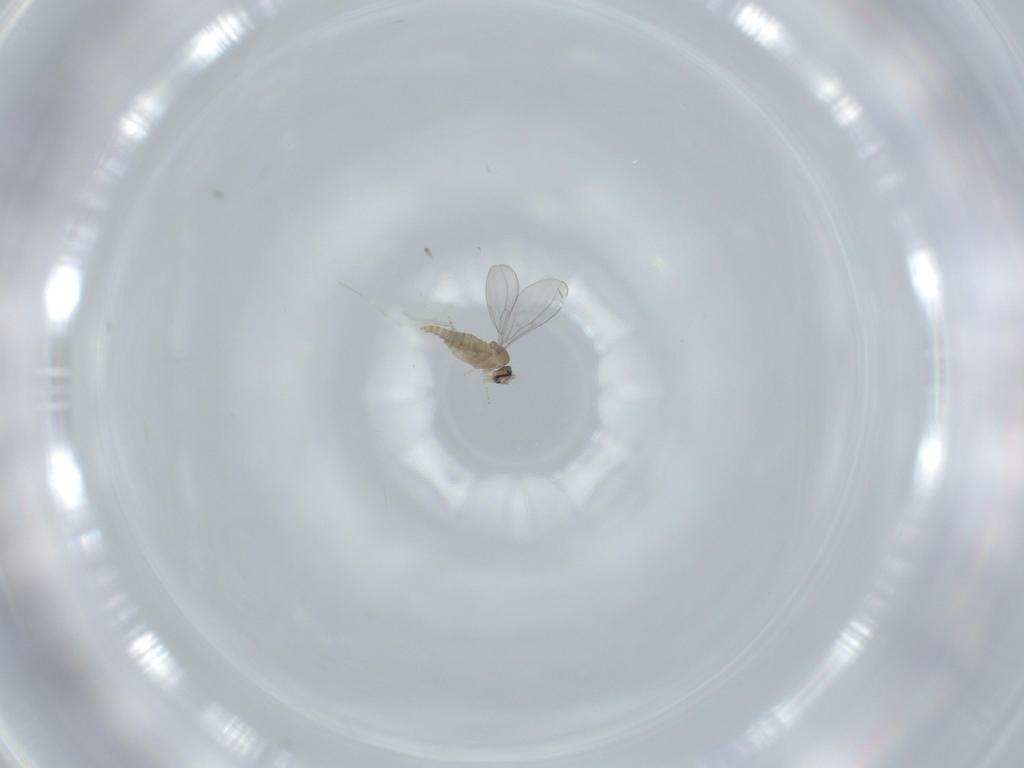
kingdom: Animalia
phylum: Arthropoda
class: Insecta
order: Diptera
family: Cecidomyiidae
